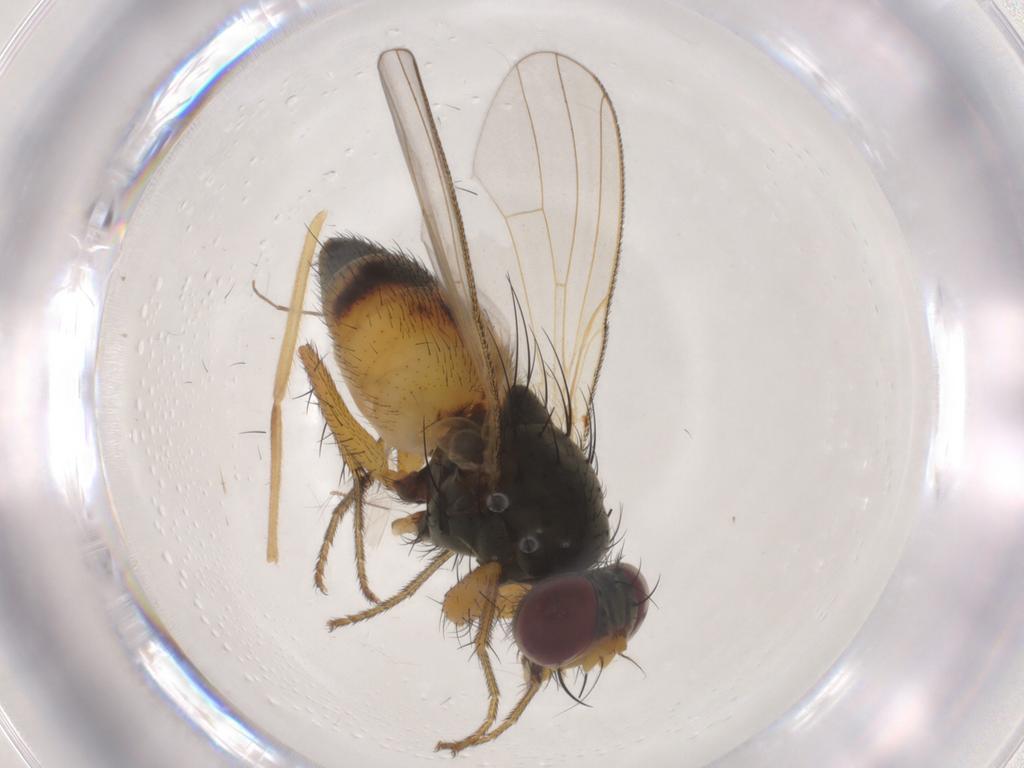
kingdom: Animalia
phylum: Arthropoda
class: Insecta
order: Diptera
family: Muscidae
